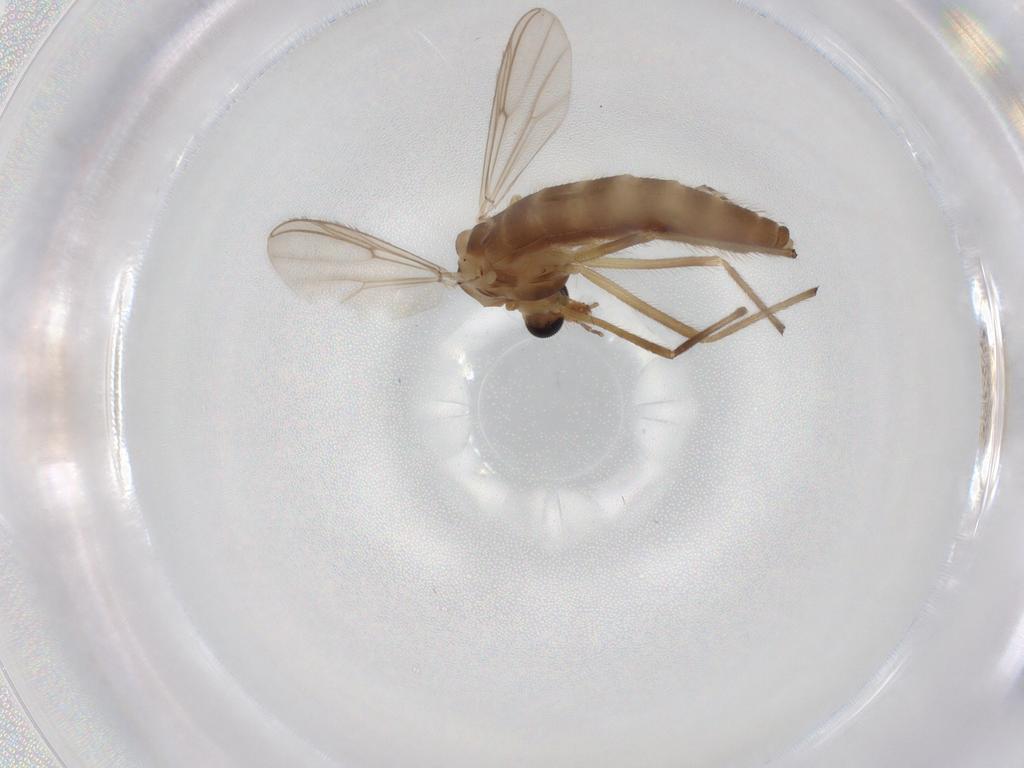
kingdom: Animalia
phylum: Arthropoda
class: Insecta
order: Diptera
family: Chironomidae
